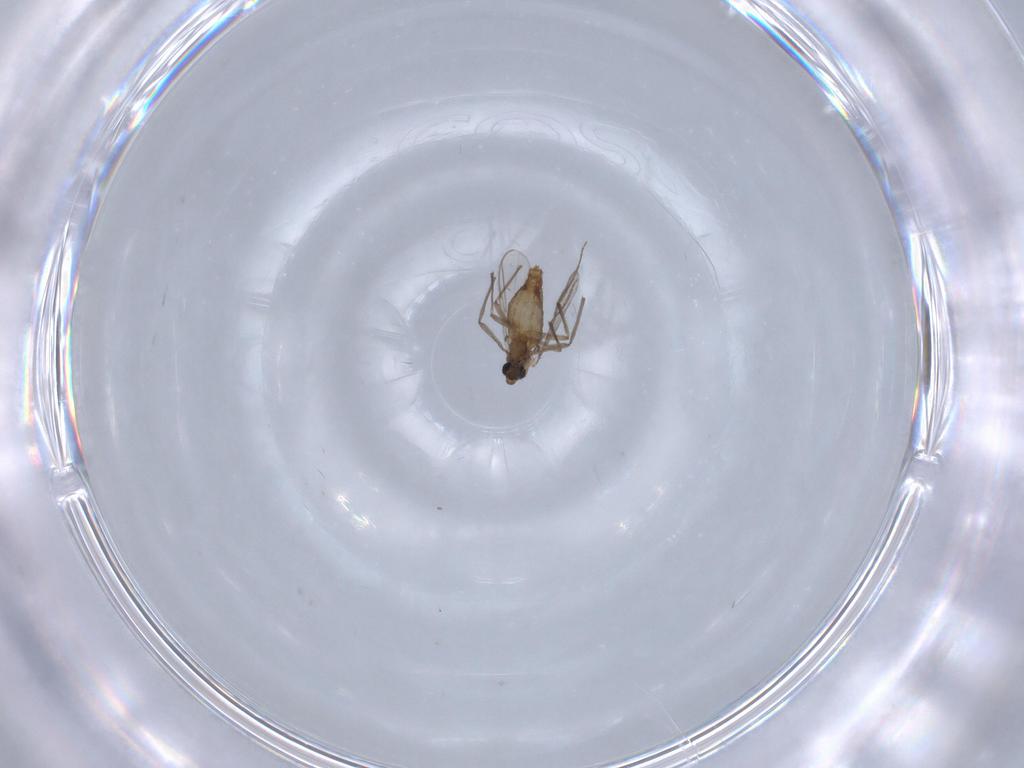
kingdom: Animalia
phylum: Arthropoda
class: Insecta
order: Diptera
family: Chironomidae
